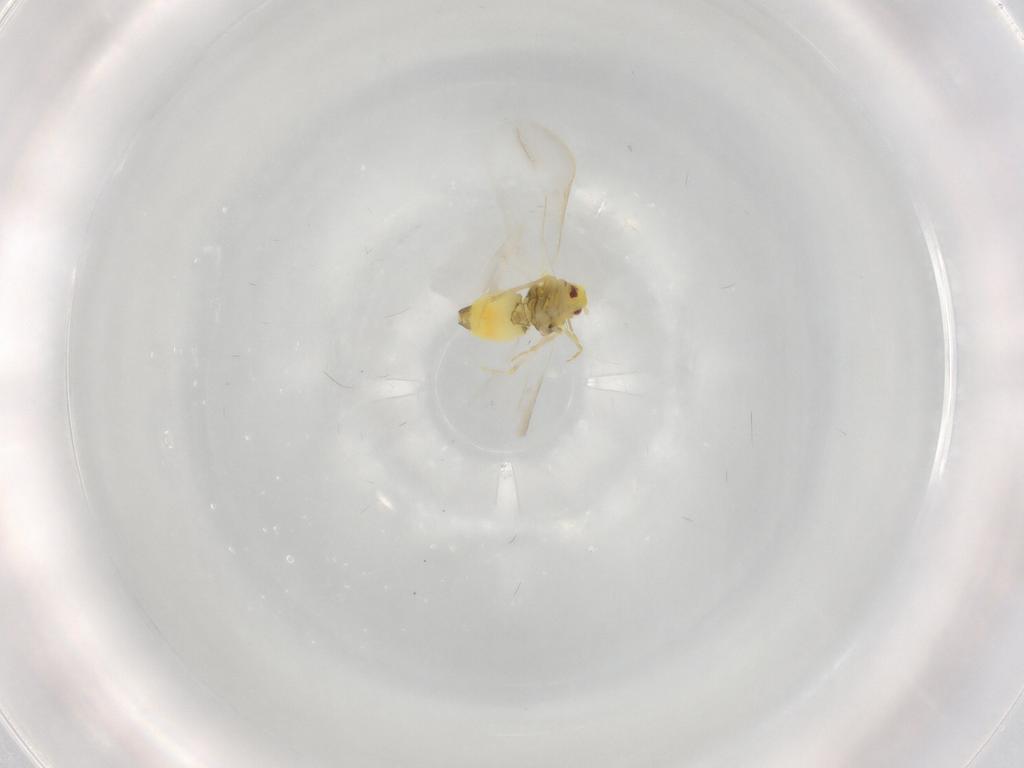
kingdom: Animalia
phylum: Arthropoda
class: Insecta
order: Hemiptera
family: Aleyrodidae
